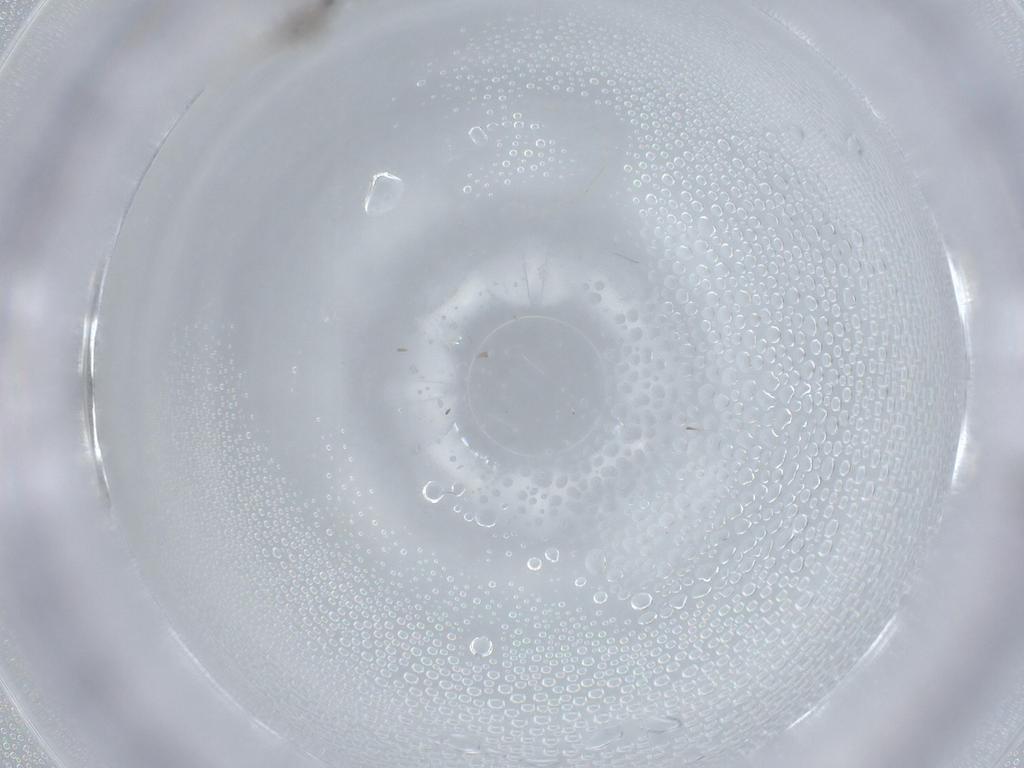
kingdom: Animalia
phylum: Arthropoda
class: Insecta
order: Diptera
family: Cecidomyiidae
